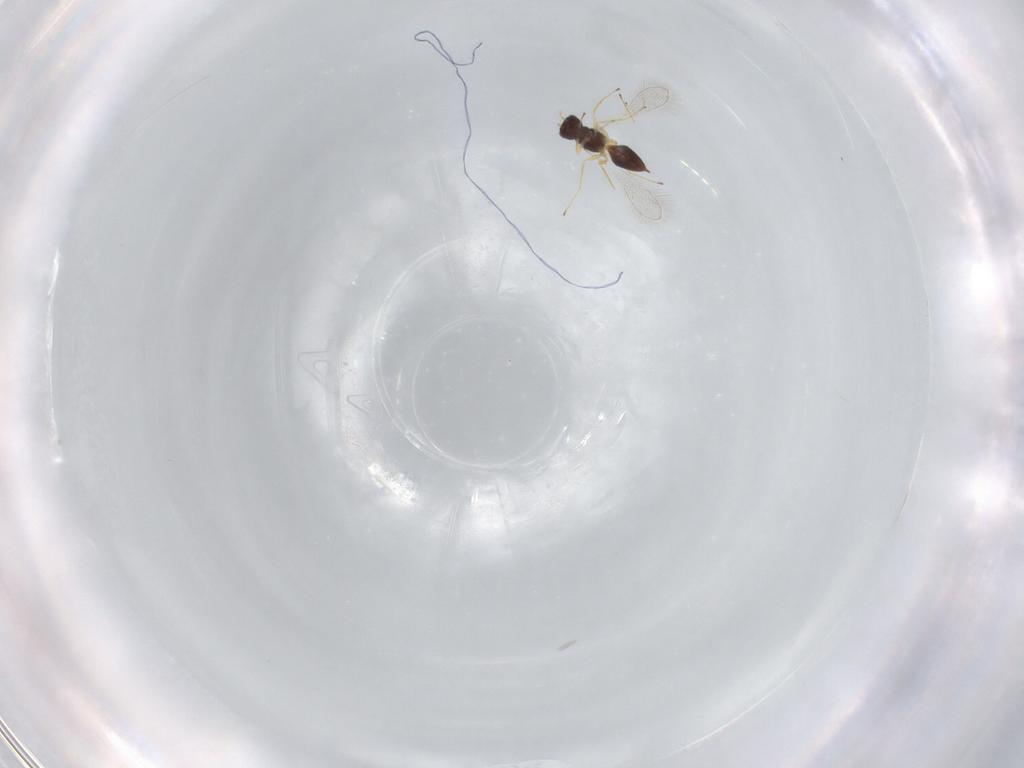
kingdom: Animalia
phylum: Arthropoda
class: Insecta
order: Hymenoptera
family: Mymaridae
